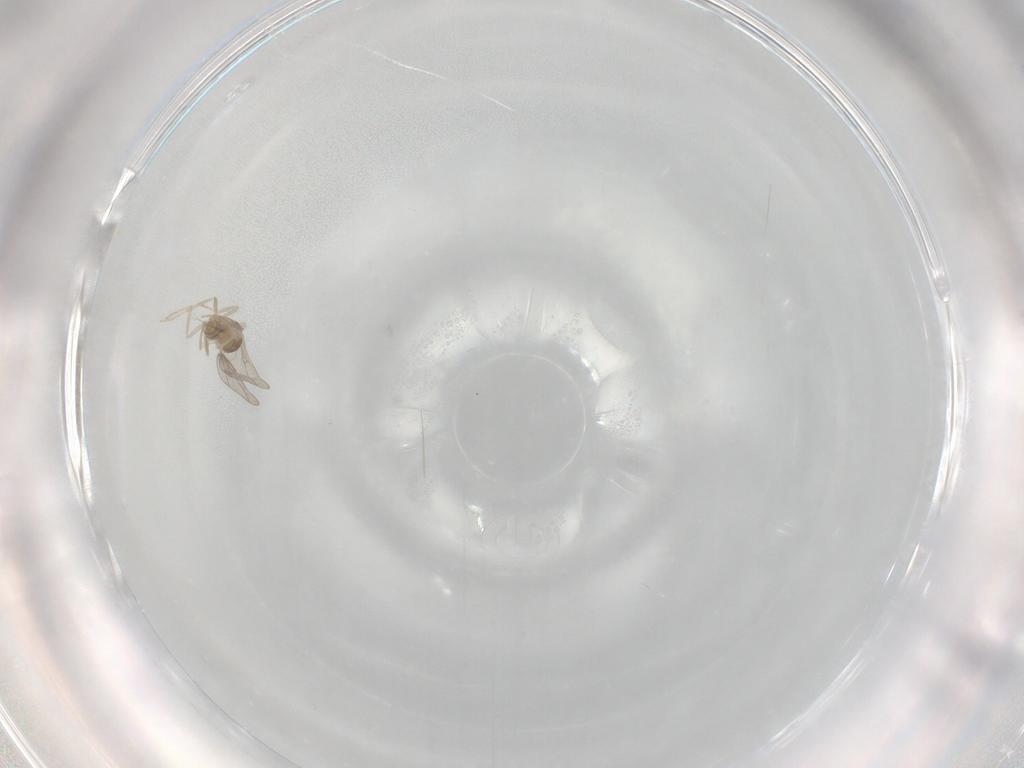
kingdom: Animalia
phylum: Arthropoda
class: Insecta
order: Diptera
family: Cecidomyiidae
